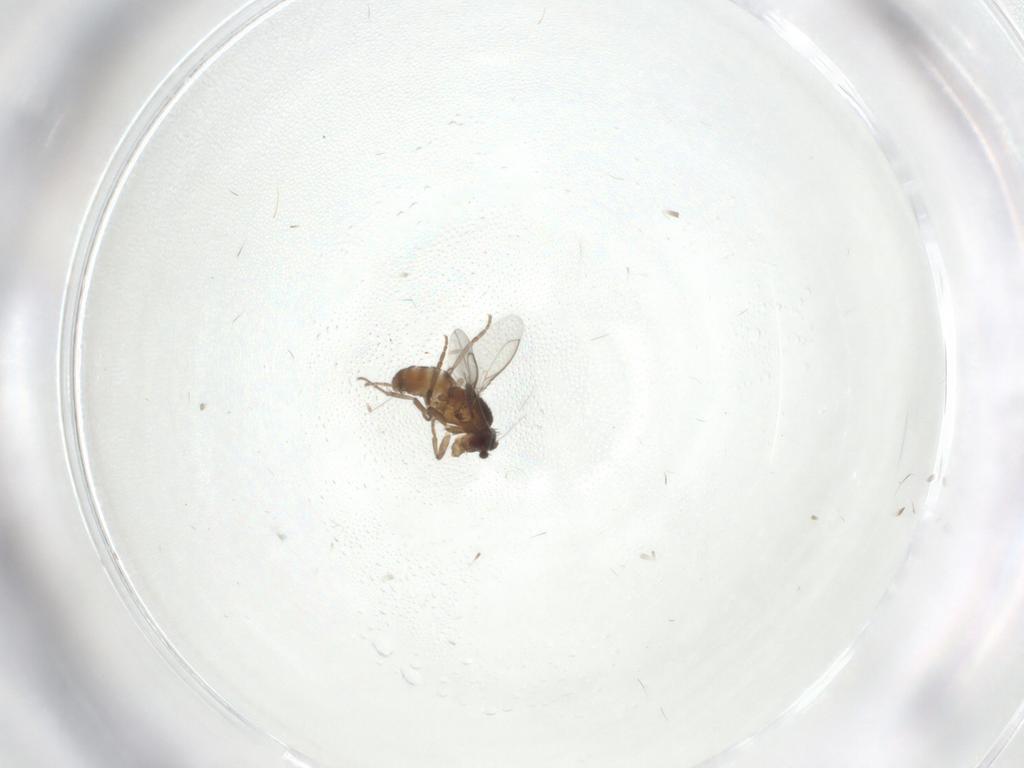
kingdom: Animalia
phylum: Arthropoda
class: Insecta
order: Diptera
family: Sphaeroceridae
